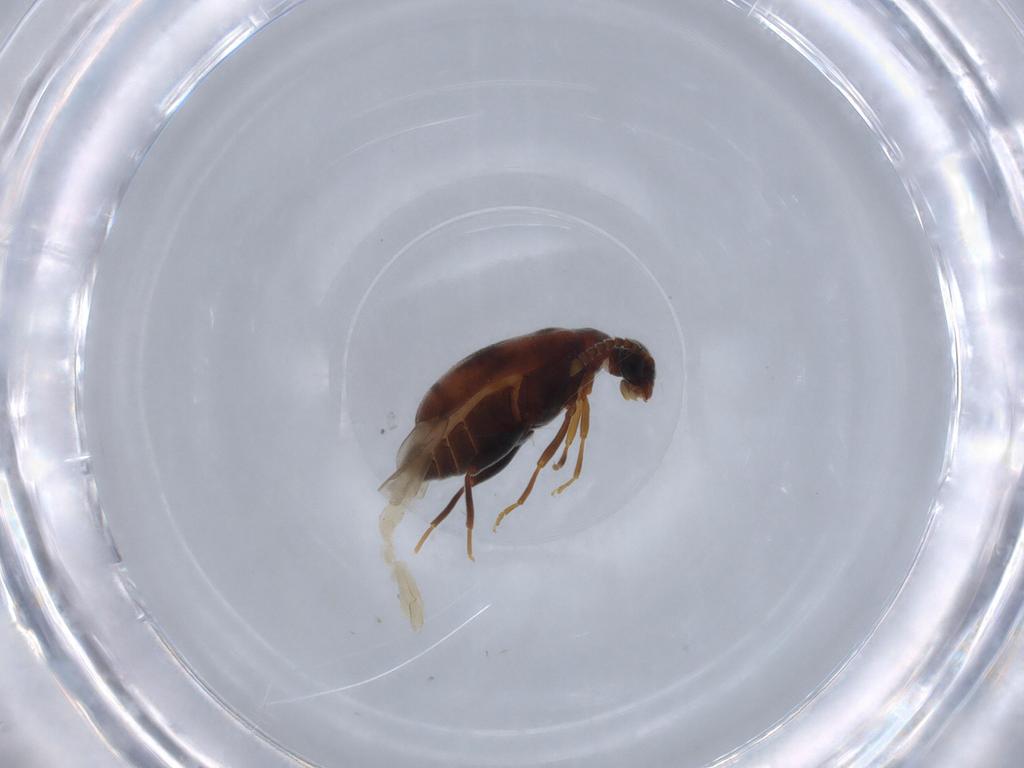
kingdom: Animalia
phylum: Arthropoda
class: Insecta
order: Coleoptera
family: Aderidae
